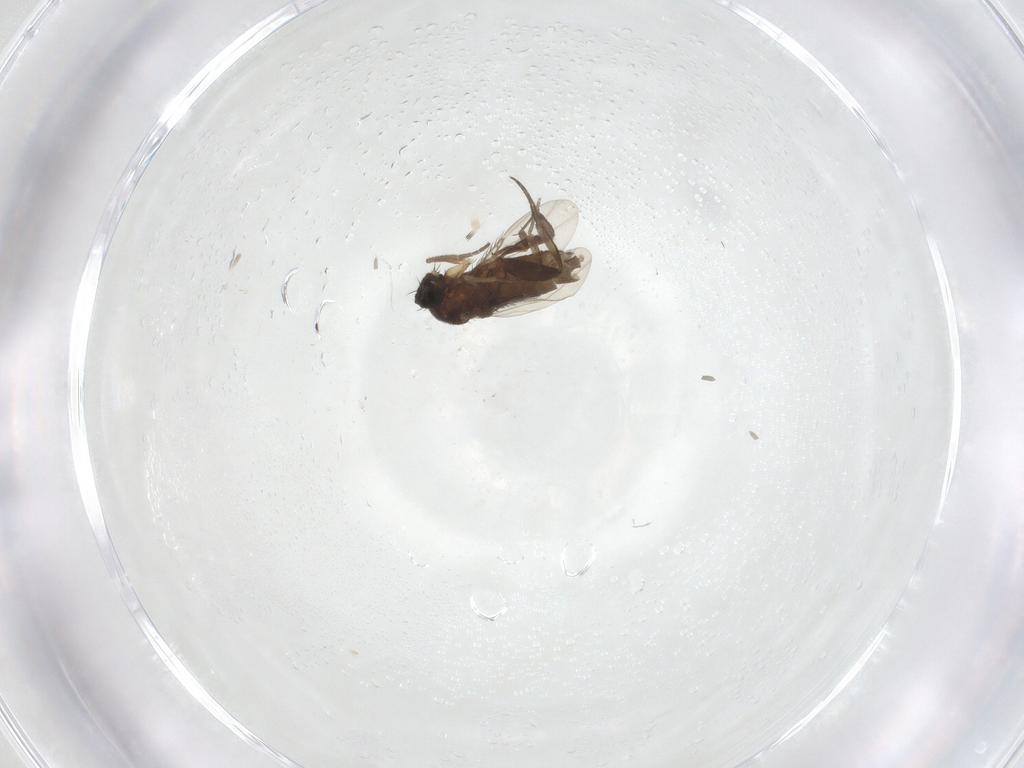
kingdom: Animalia
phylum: Arthropoda
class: Insecta
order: Diptera
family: Phoridae
